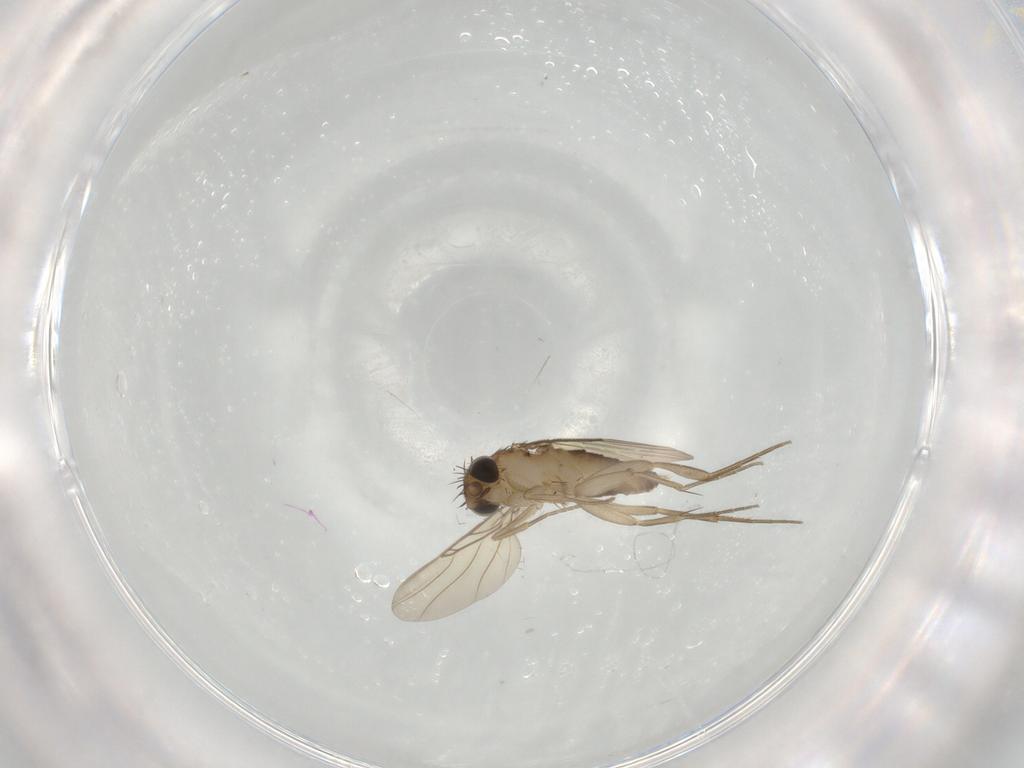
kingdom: Animalia
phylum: Arthropoda
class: Insecta
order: Diptera
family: Phoridae
